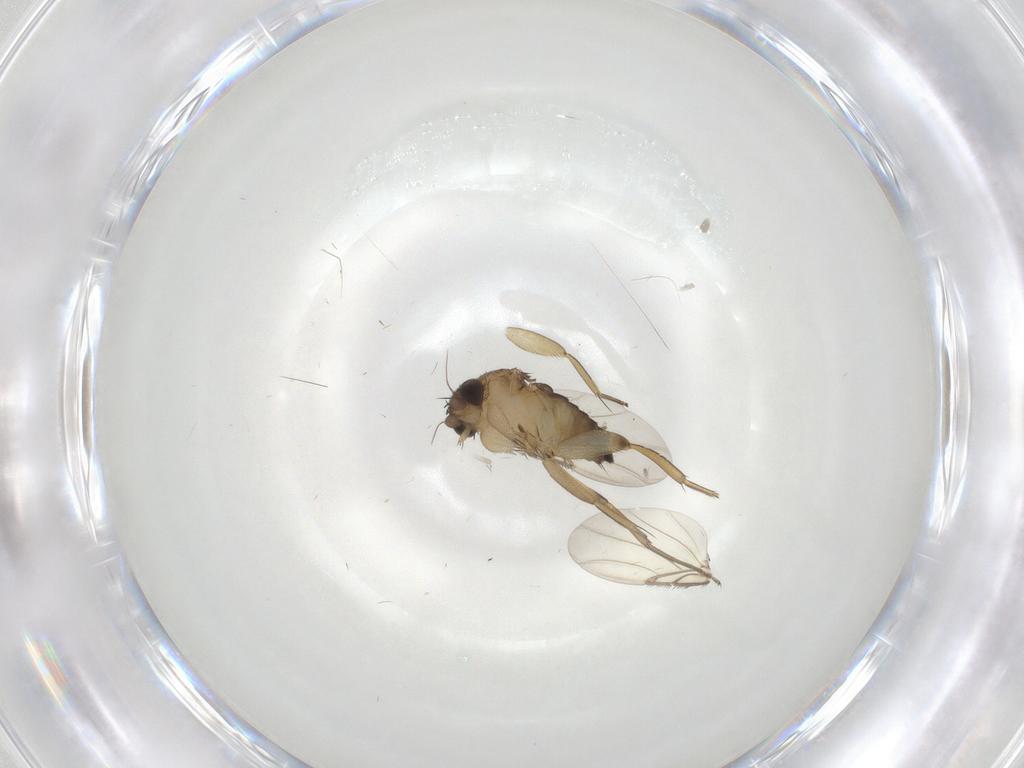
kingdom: Animalia
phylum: Arthropoda
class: Insecta
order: Diptera
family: Phoridae
